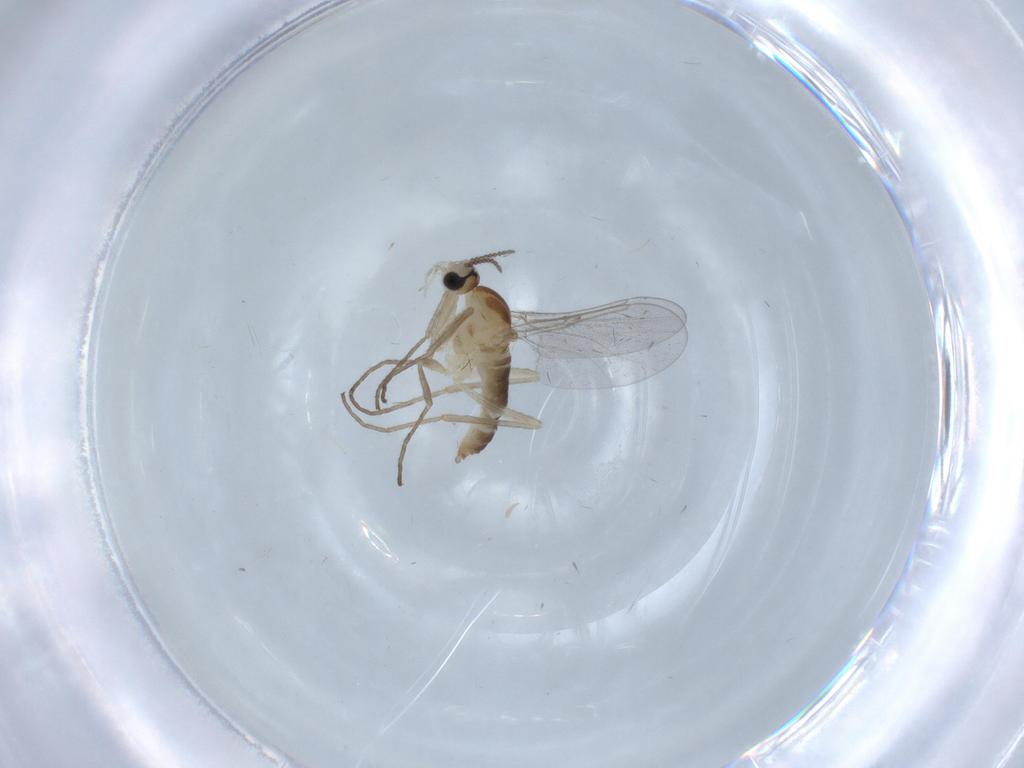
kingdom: Animalia
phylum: Arthropoda
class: Insecta
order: Diptera
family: Cecidomyiidae
